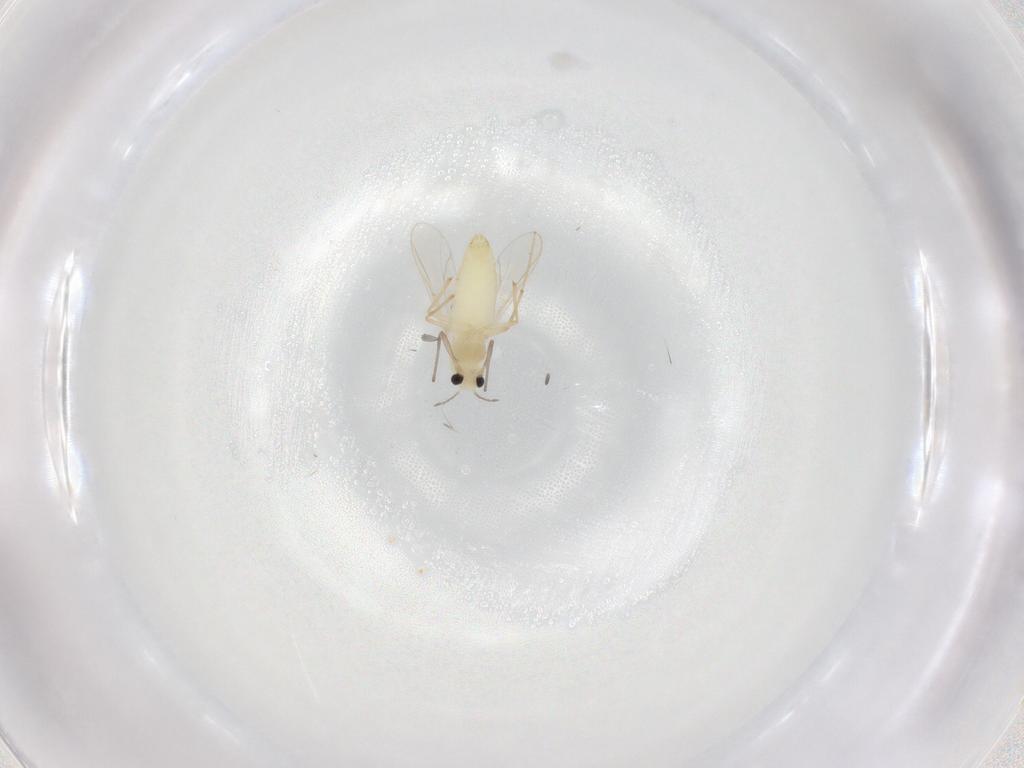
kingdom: Animalia
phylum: Arthropoda
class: Insecta
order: Diptera
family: Chironomidae
